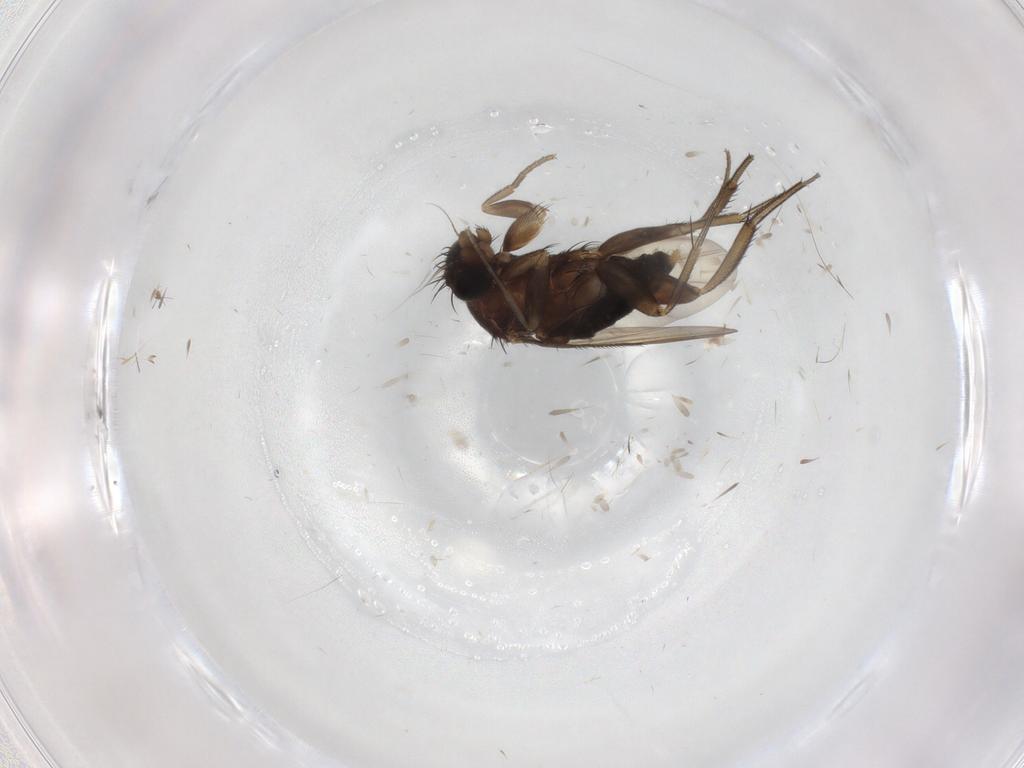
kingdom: Animalia
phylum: Arthropoda
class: Insecta
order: Diptera
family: Phoridae
